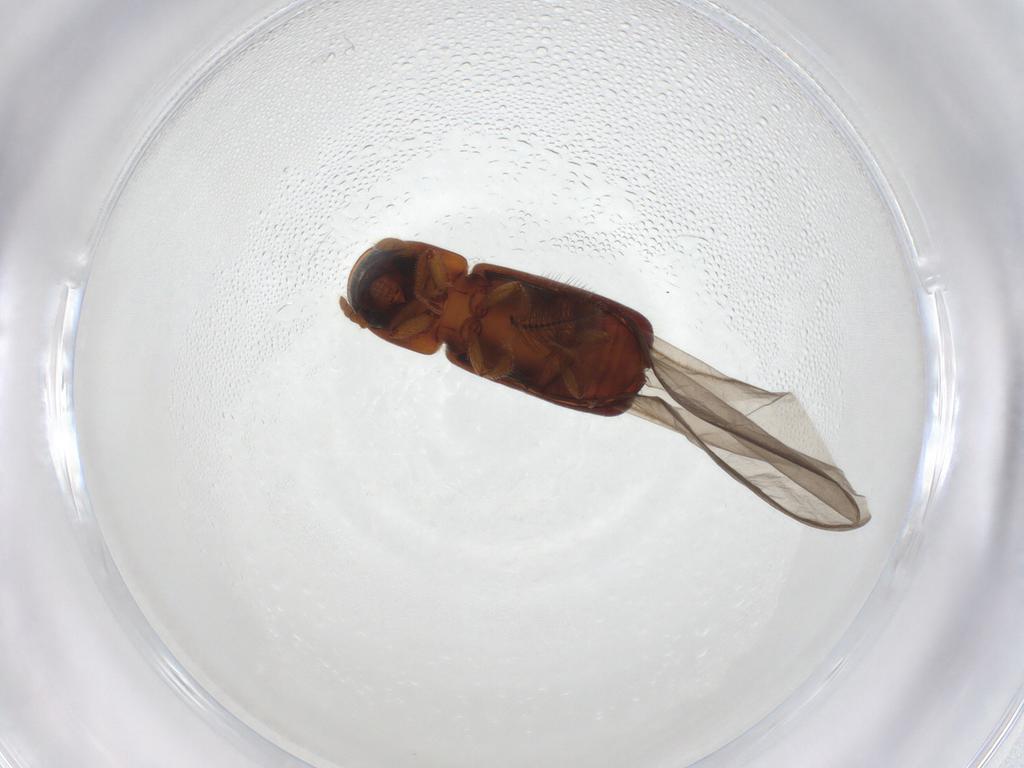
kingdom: Animalia
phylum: Arthropoda
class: Insecta
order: Coleoptera
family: Curculionidae
